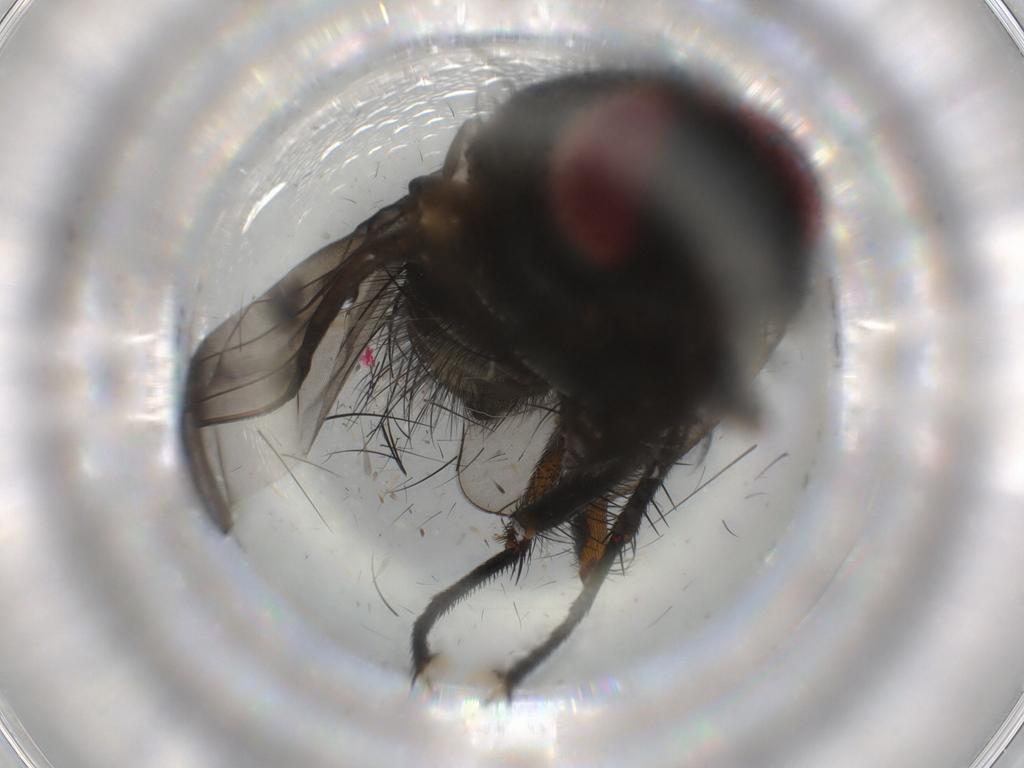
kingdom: Animalia
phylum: Arthropoda
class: Insecta
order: Diptera
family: Muscidae
